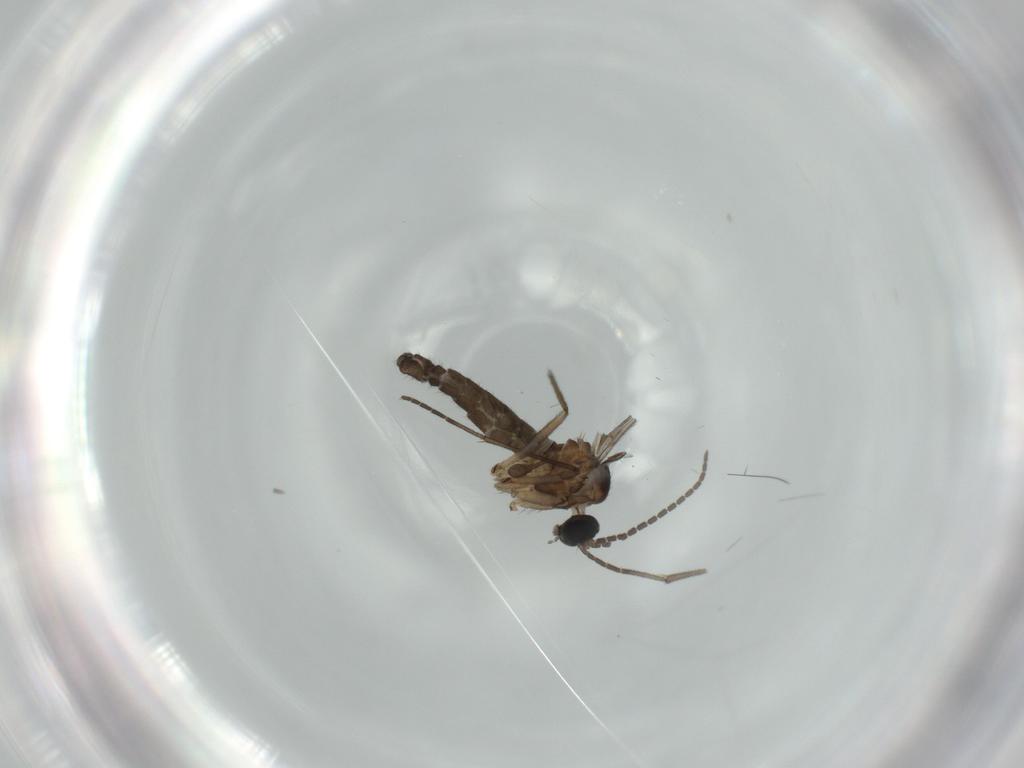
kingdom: Animalia
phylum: Arthropoda
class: Insecta
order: Diptera
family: Sciaridae
